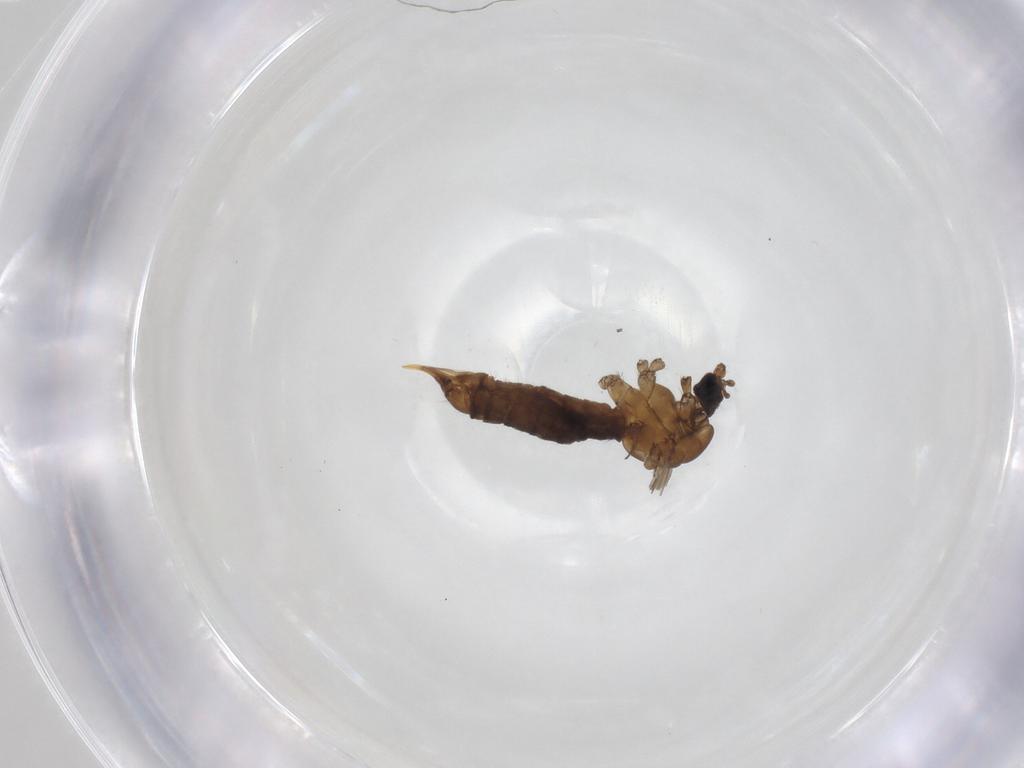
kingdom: Animalia
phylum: Arthropoda
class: Insecta
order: Diptera
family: Limoniidae
